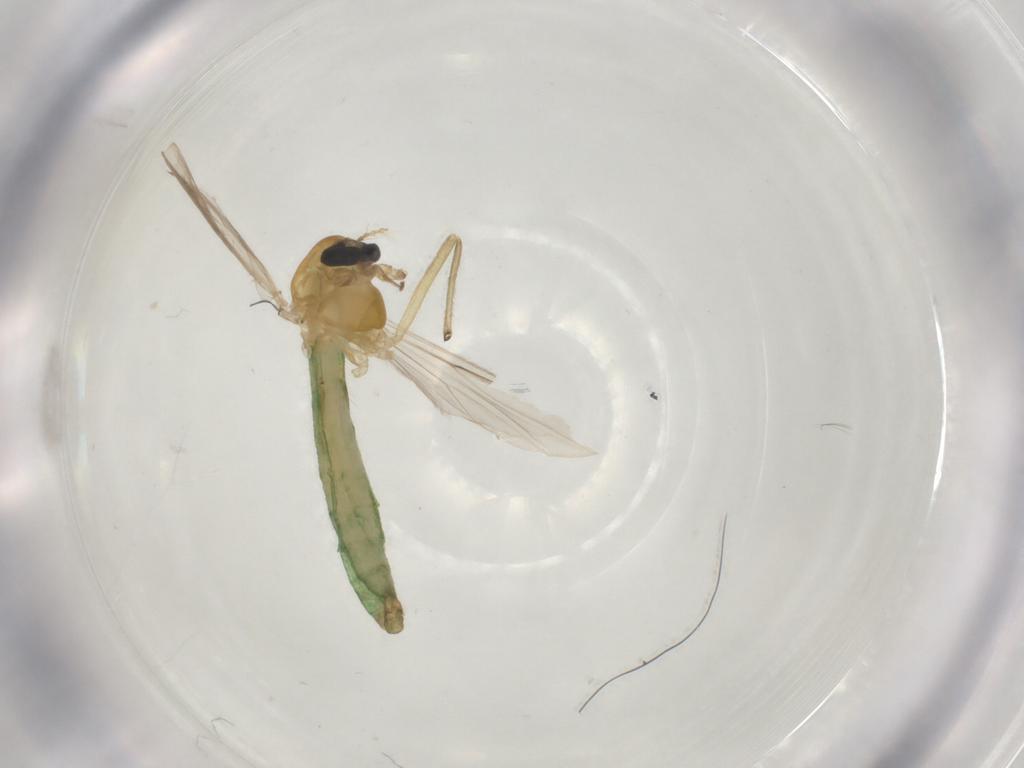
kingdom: Animalia
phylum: Arthropoda
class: Insecta
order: Diptera
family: Chironomidae
